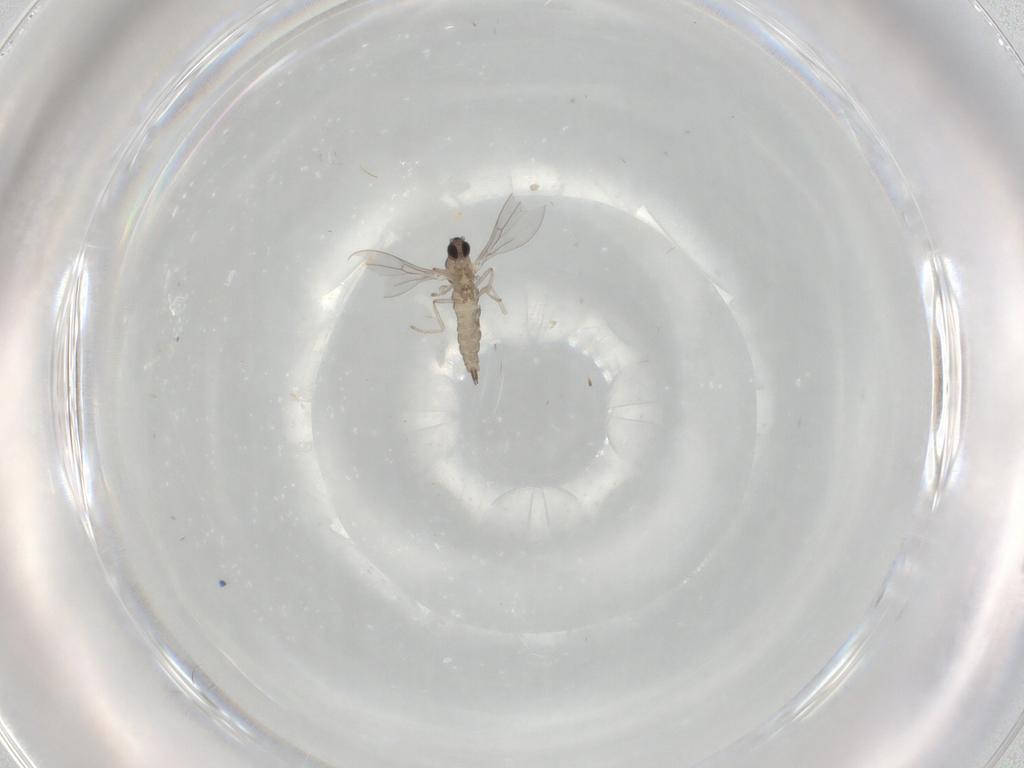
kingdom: Animalia
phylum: Arthropoda
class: Insecta
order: Diptera
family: Cecidomyiidae
